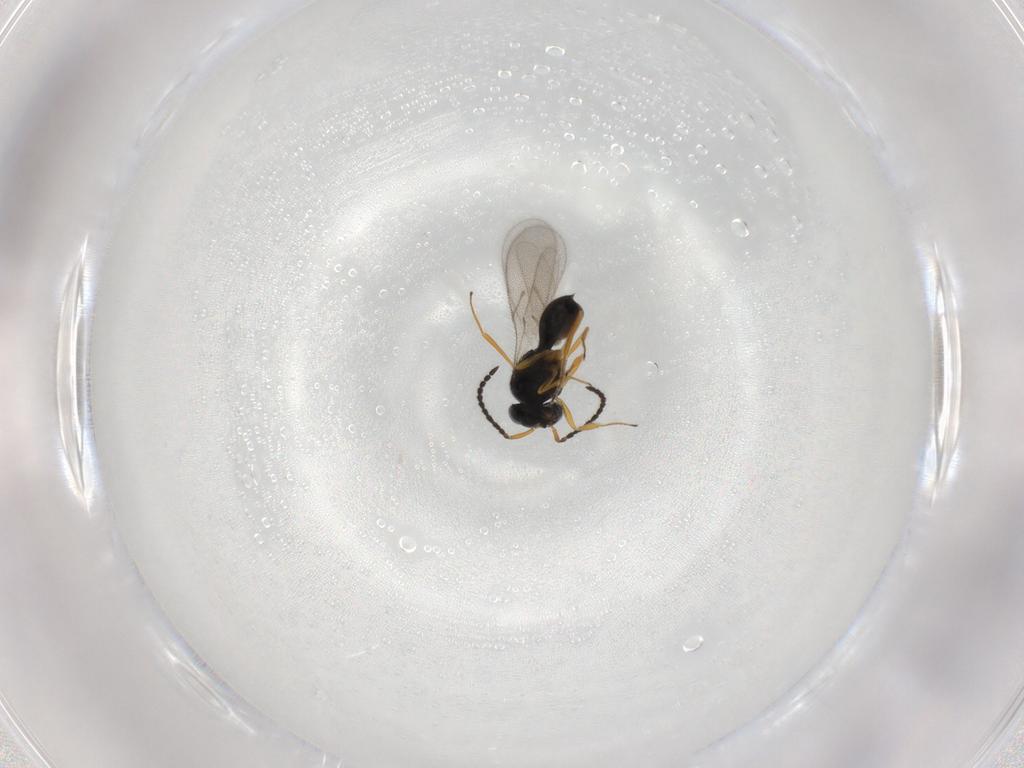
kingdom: Animalia
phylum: Arthropoda
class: Insecta
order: Hymenoptera
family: Scelionidae
